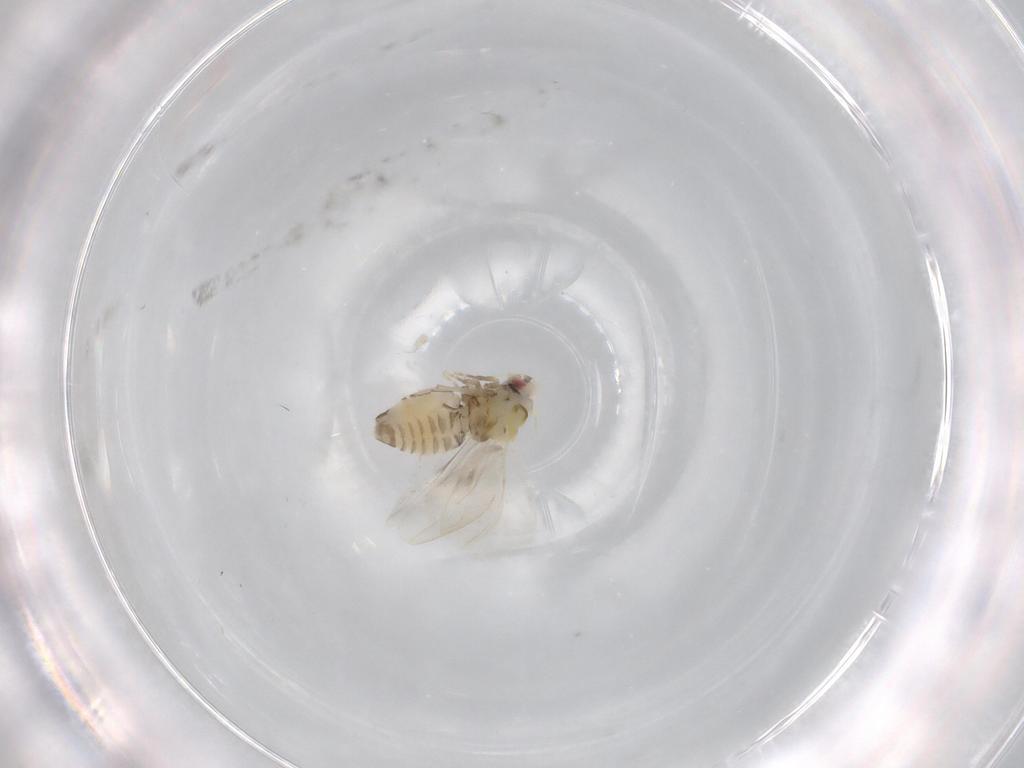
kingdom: Animalia
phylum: Arthropoda
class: Insecta
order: Hemiptera
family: Aleyrodidae
